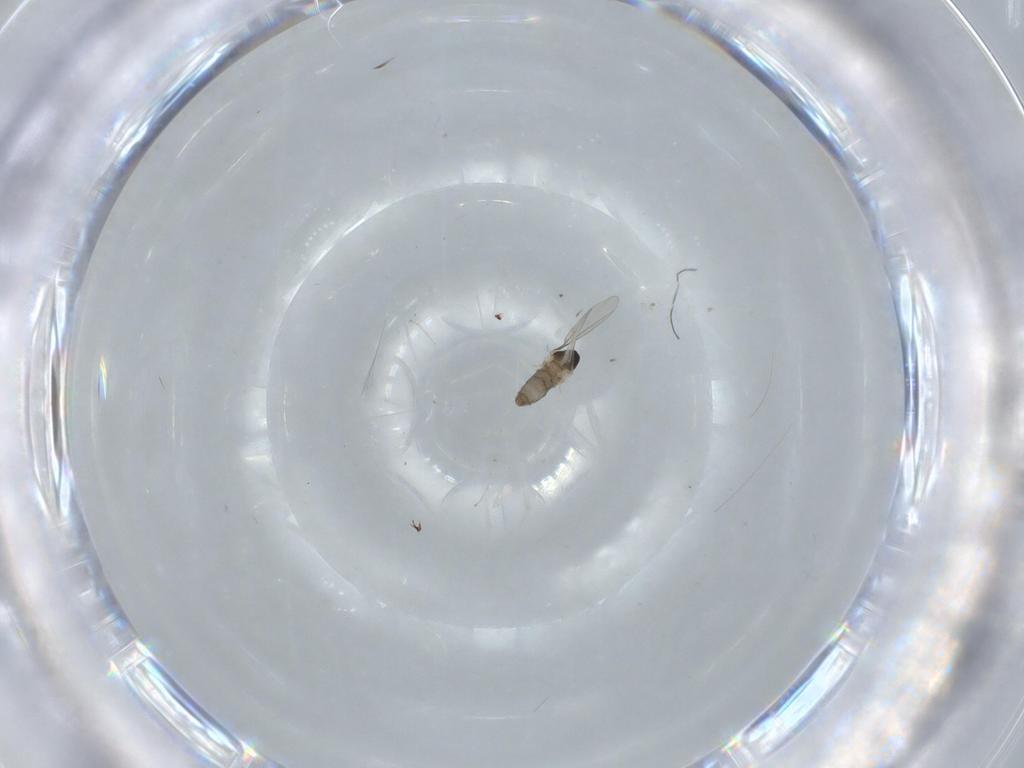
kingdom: Animalia
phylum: Arthropoda
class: Insecta
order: Diptera
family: Cecidomyiidae
